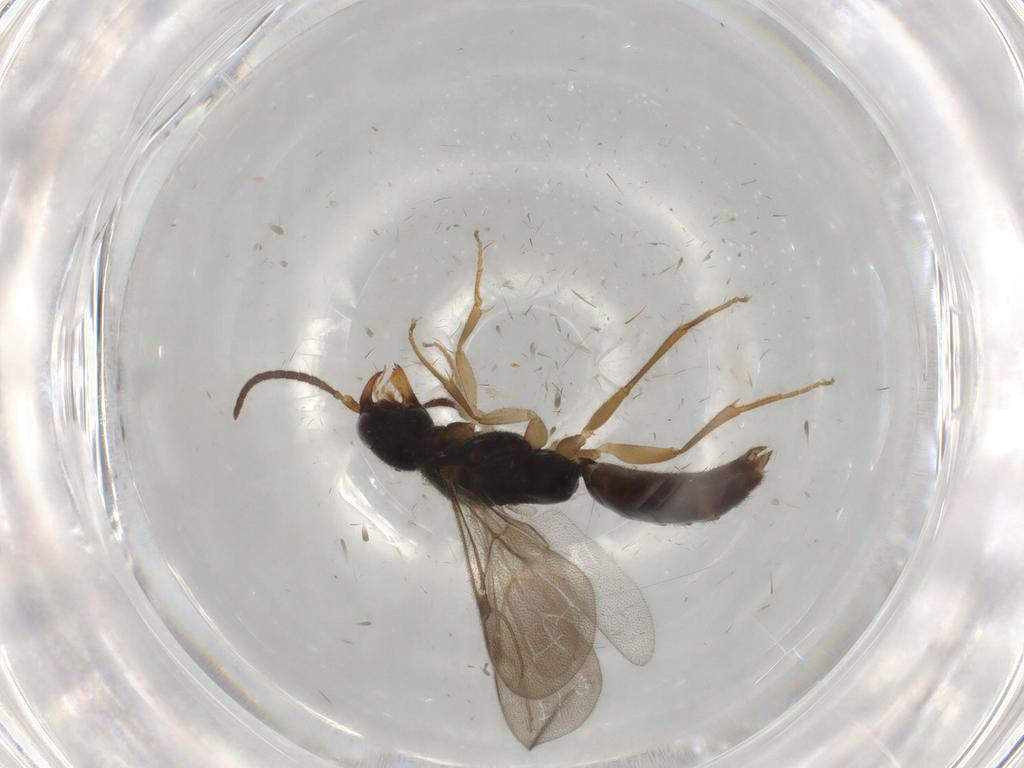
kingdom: Animalia
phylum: Arthropoda
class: Insecta
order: Hymenoptera
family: Bethylidae
